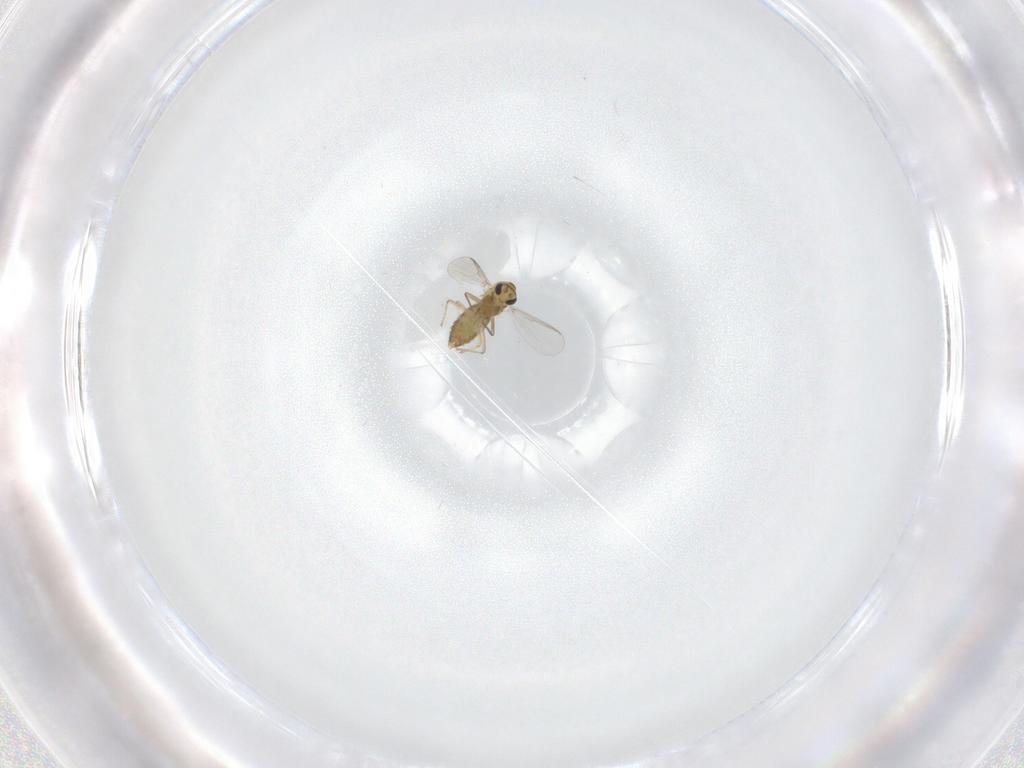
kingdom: Animalia
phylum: Arthropoda
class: Insecta
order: Diptera
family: Chironomidae
